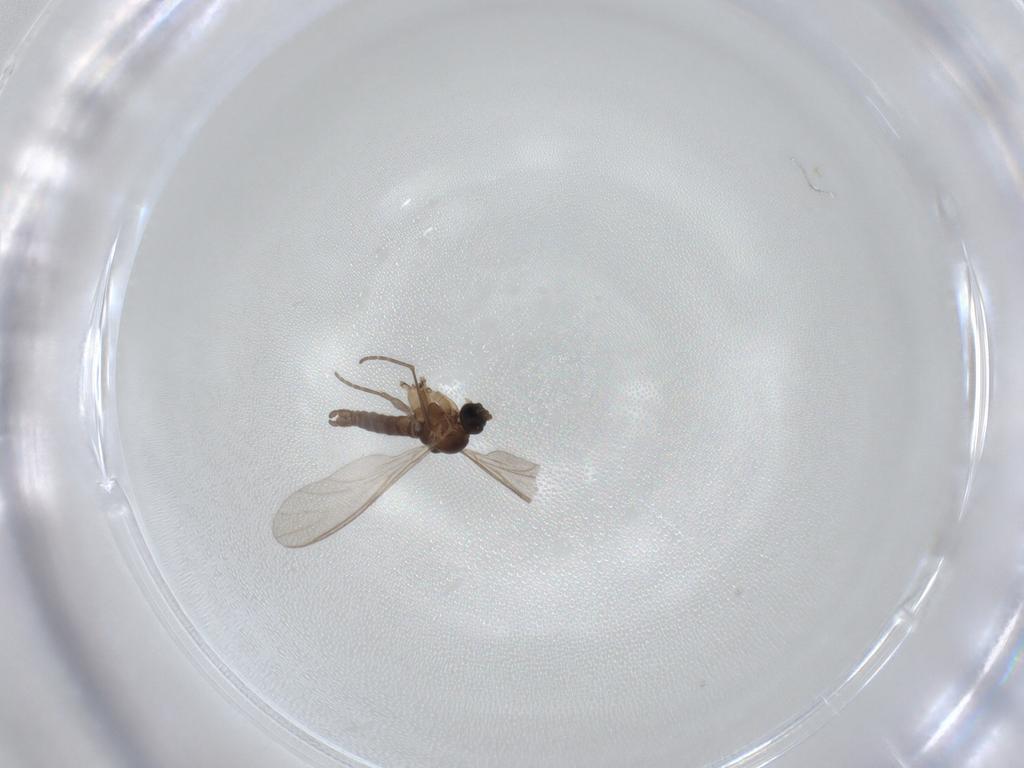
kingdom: Animalia
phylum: Arthropoda
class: Insecta
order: Diptera
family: Sciaridae
